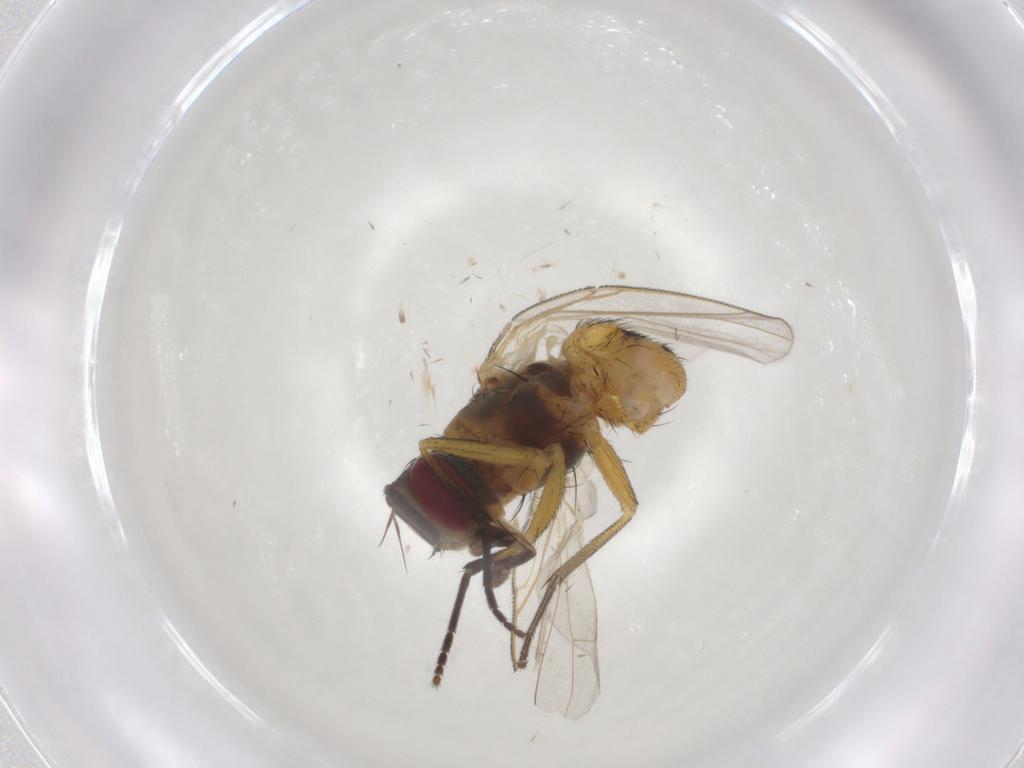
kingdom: Animalia
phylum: Arthropoda
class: Insecta
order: Diptera
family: Muscidae
